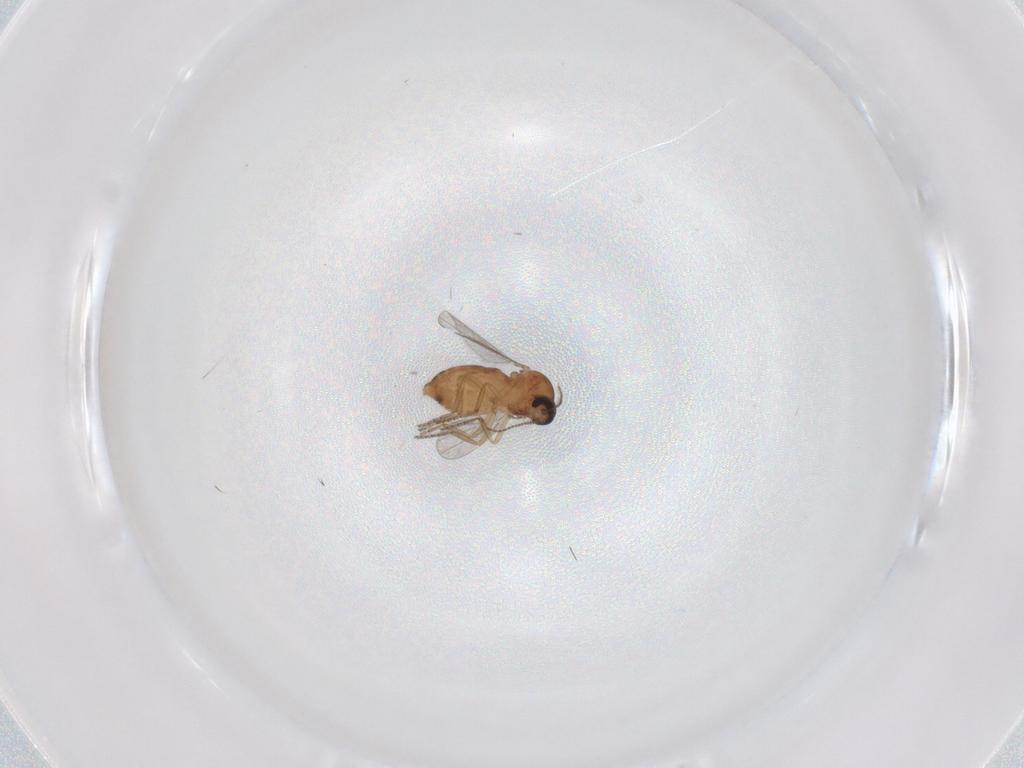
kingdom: Animalia
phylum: Arthropoda
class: Insecta
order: Diptera
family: Ceratopogonidae
